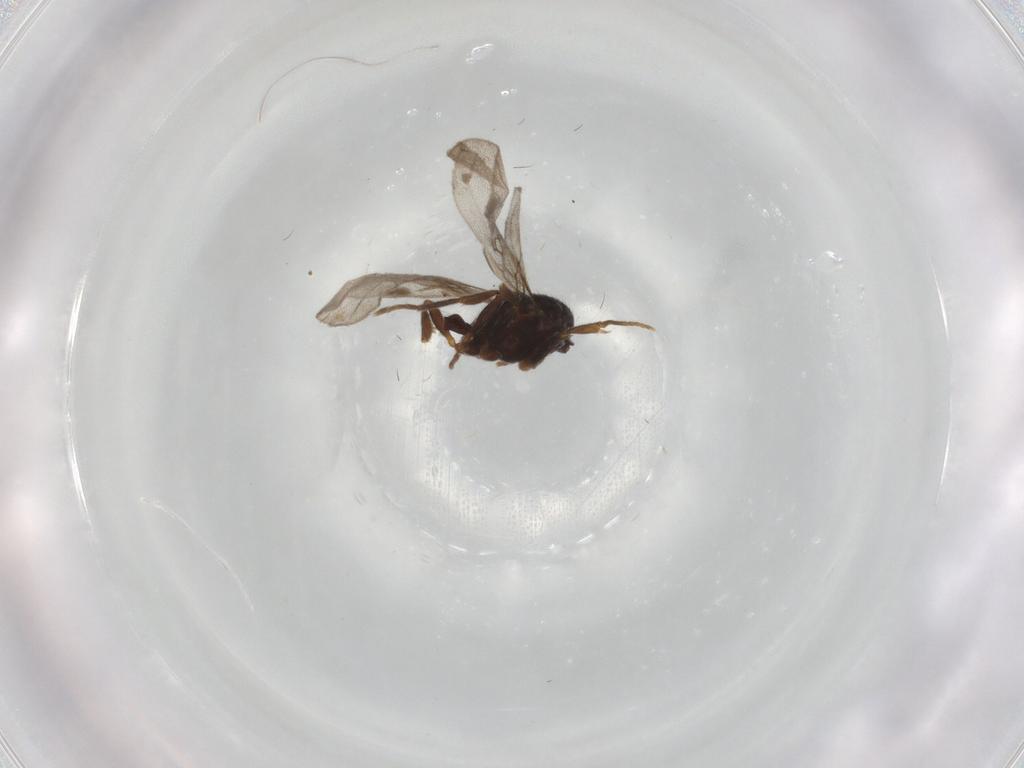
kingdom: Animalia
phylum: Arthropoda
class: Insecta
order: Hymenoptera
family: Formicidae
